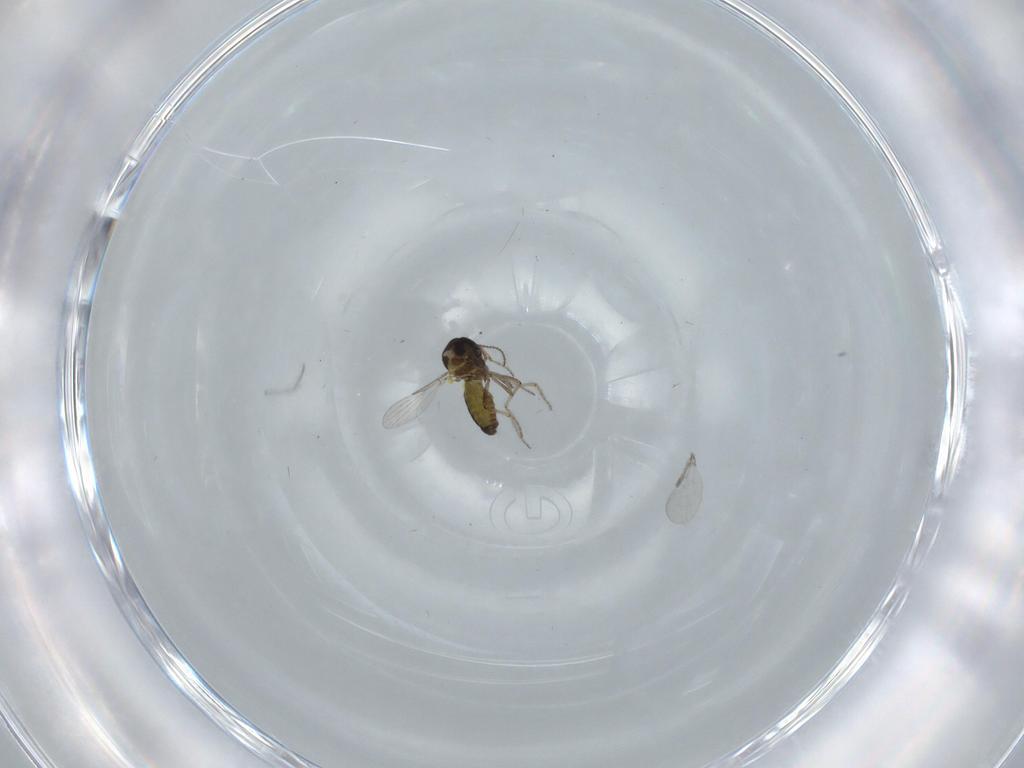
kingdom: Animalia
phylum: Arthropoda
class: Insecta
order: Diptera
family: Ceratopogonidae
